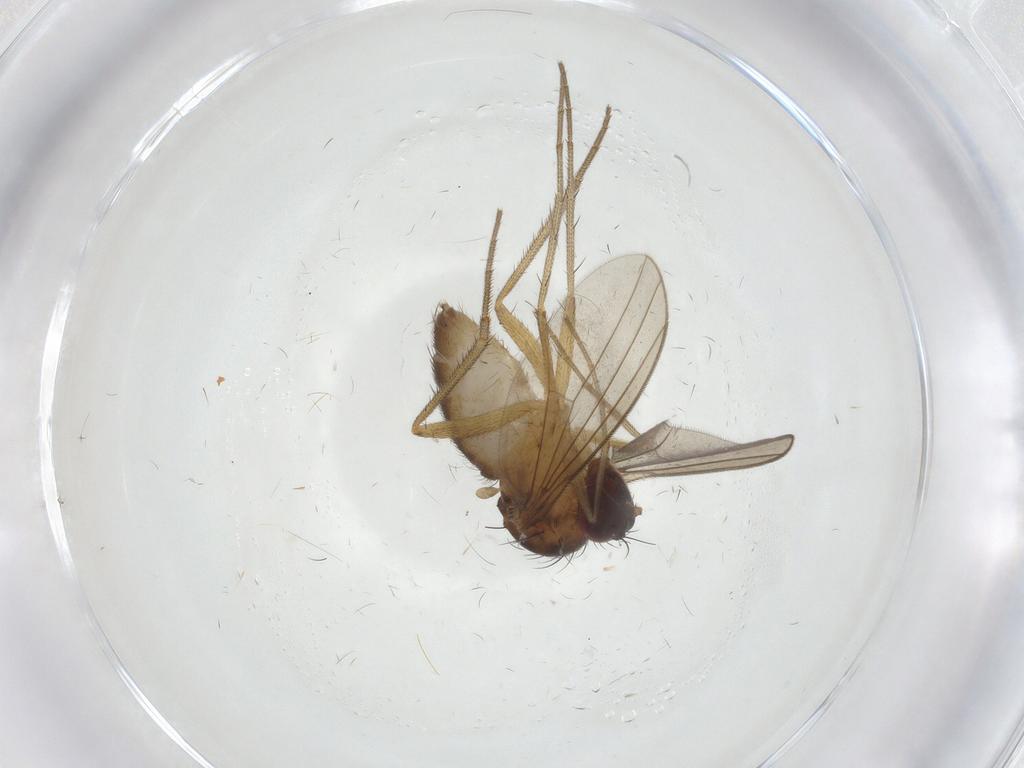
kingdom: Animalia
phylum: Arthropoda
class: Insecta
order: Diptera
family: Dolichopodidae
